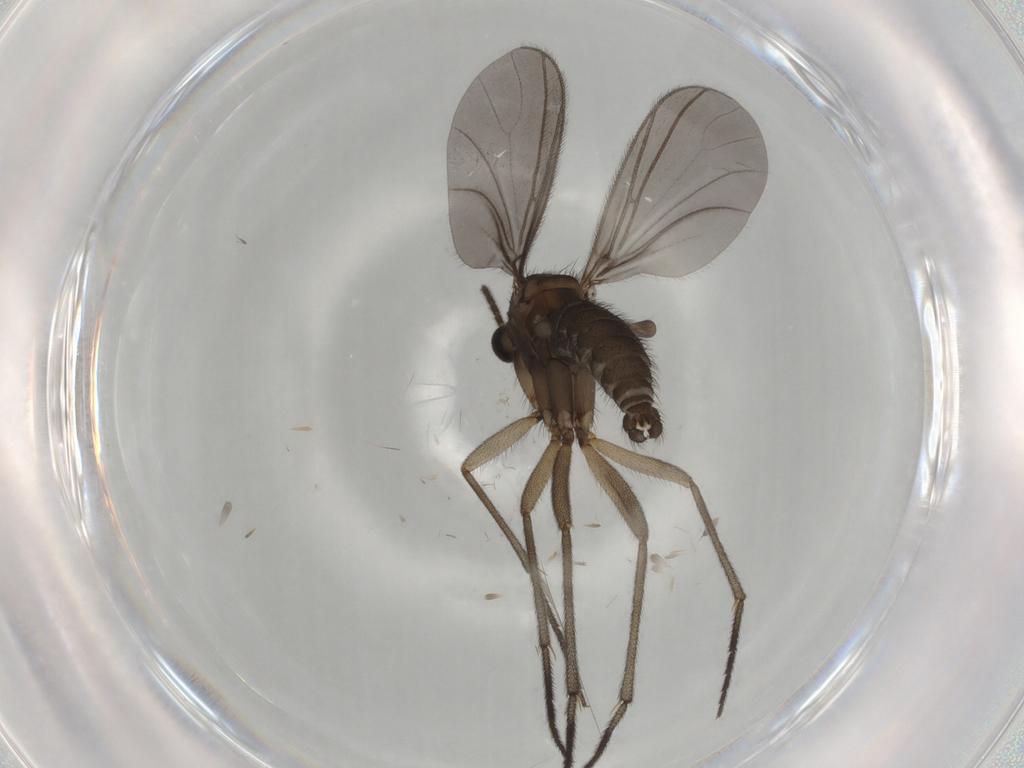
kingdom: Animalia
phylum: Arthropoda
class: Insecta
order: Diptera
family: Sciaridae
